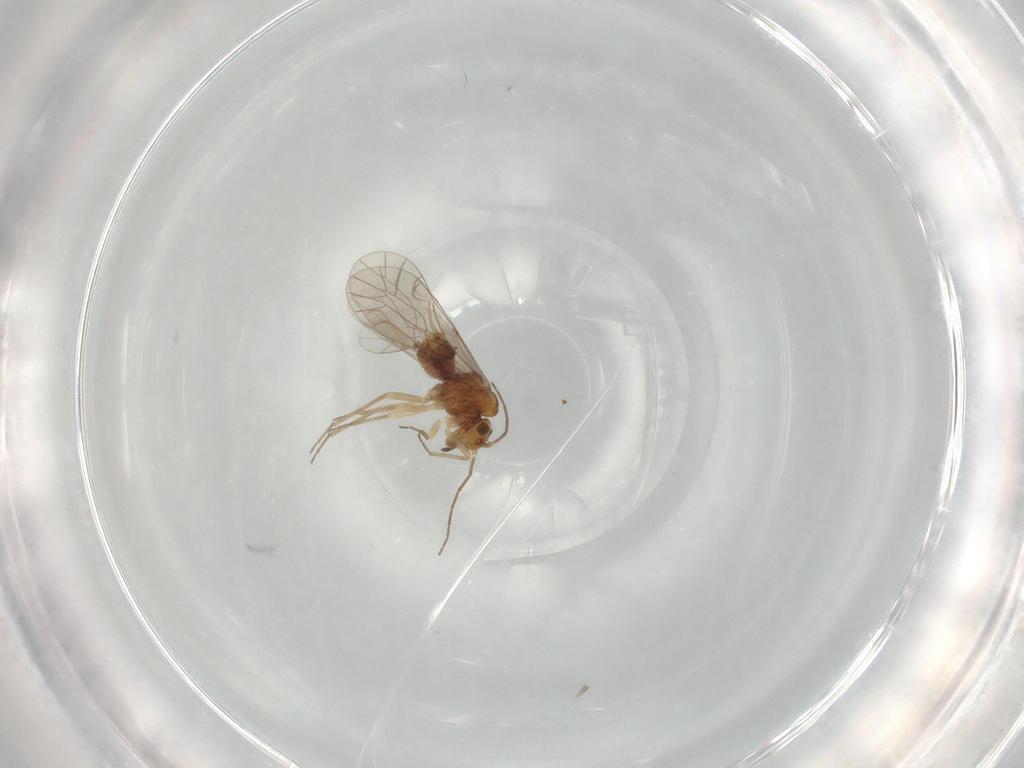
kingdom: Animalia
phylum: Arthropoda
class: Insecta
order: Psocodea
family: Lachesillidae
